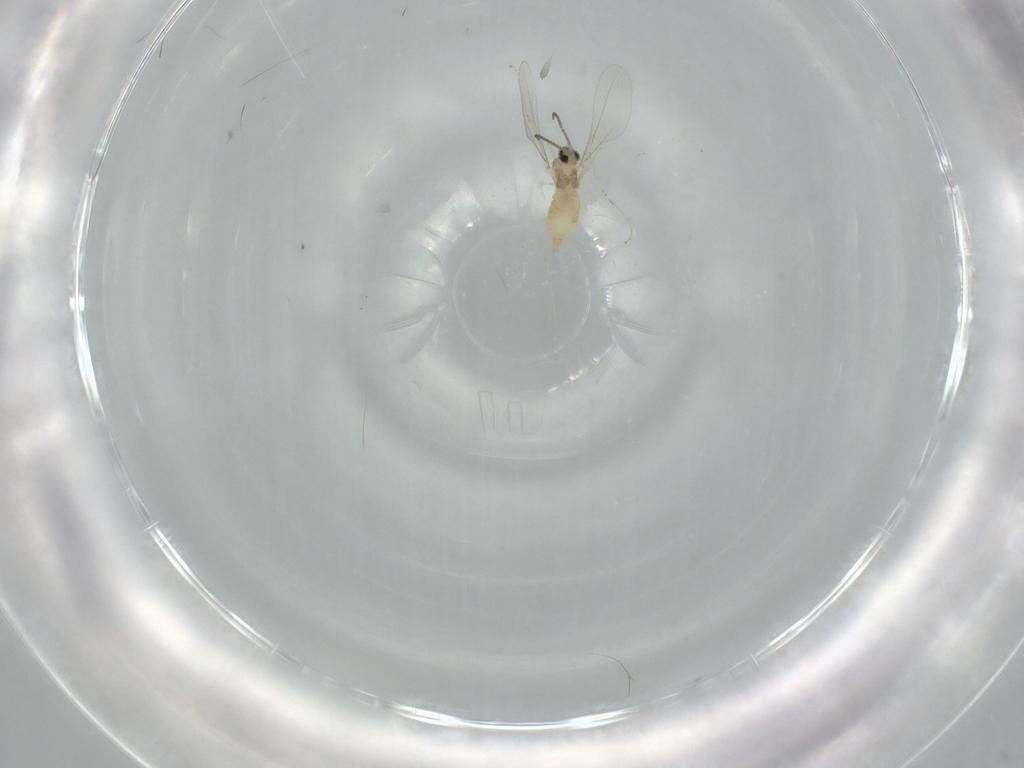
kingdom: Animalia
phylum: Arthropoda
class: Insecta
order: Diptera
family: Cecidomyiidae
